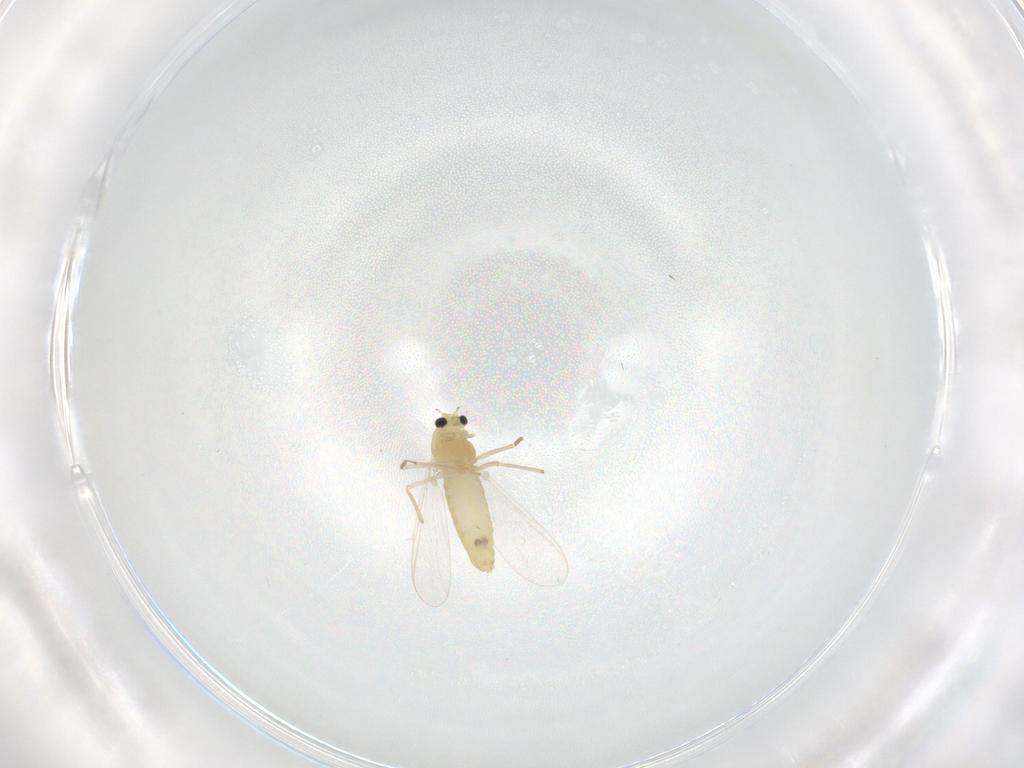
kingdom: Animalia
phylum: Arthropoda
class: Insecta
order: Diptera
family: Chironomidae
